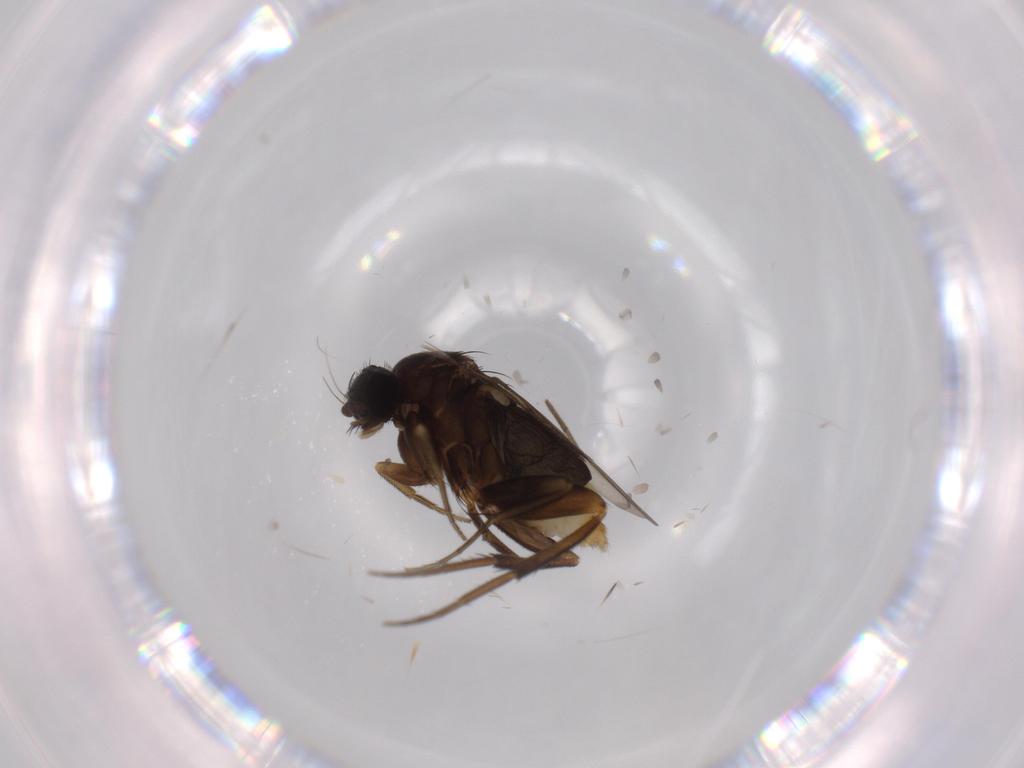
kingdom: Animalia
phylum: Arthropoda
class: Insecta
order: Diptera
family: Phoridae
